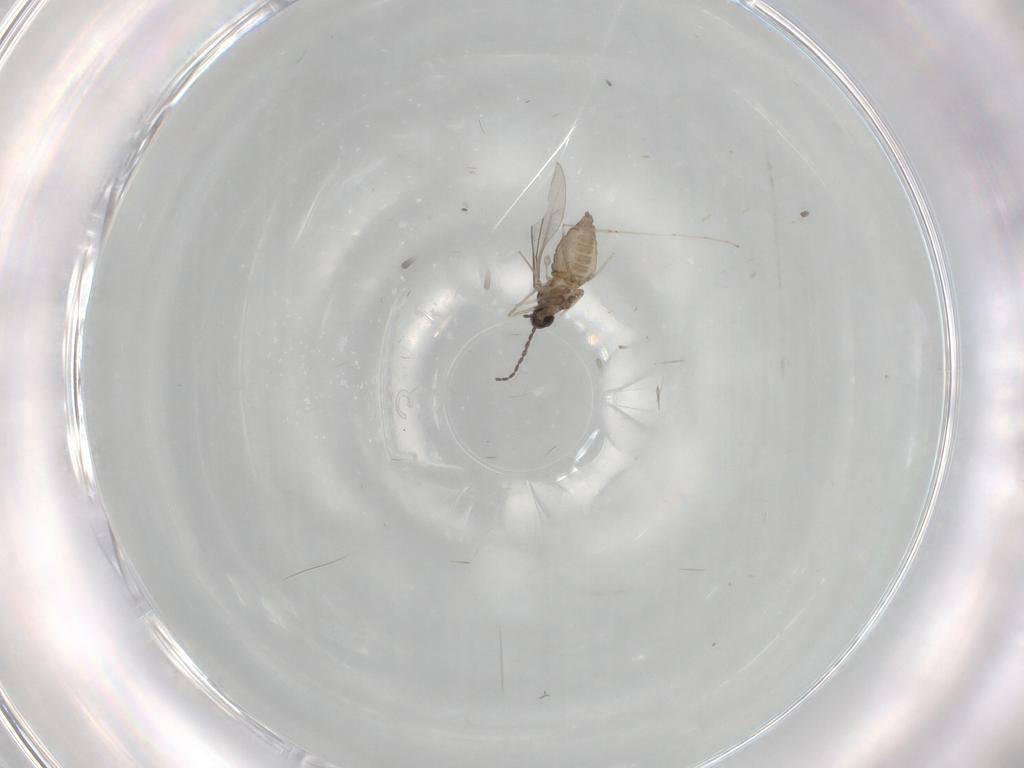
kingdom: Animalia
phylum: Arthropoda
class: Insecta
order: Diptera
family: Cecidomyiidae
